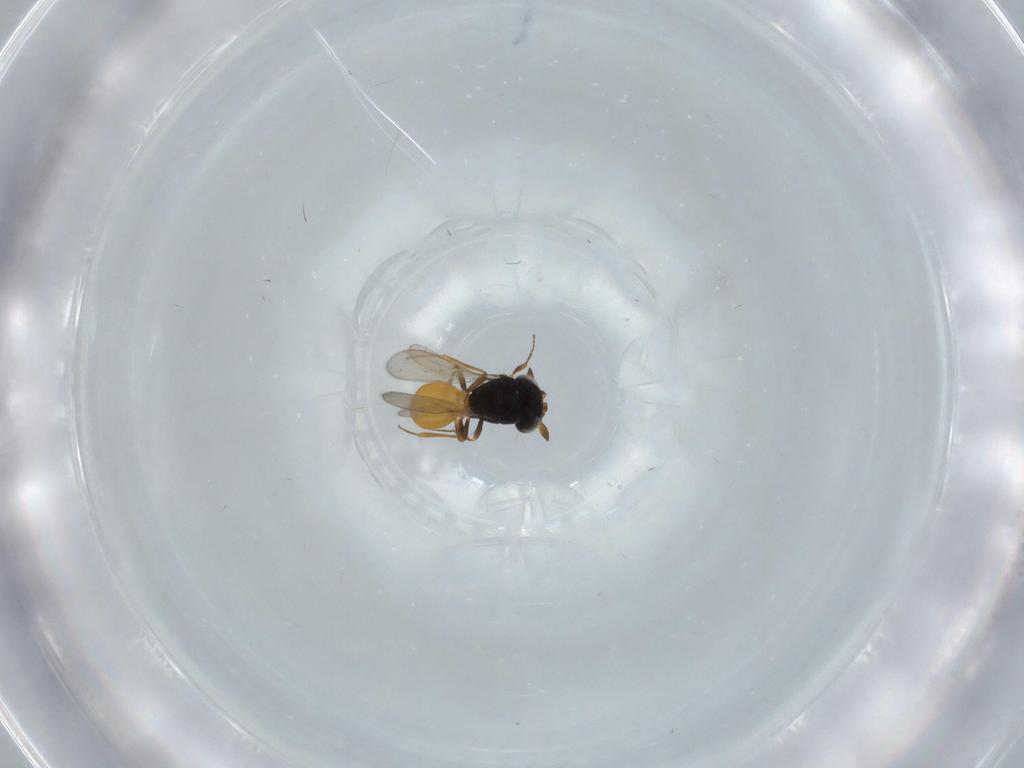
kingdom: Animalia
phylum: Arthropoda
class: Insecta
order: Hymenoptera
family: Scelionidae
